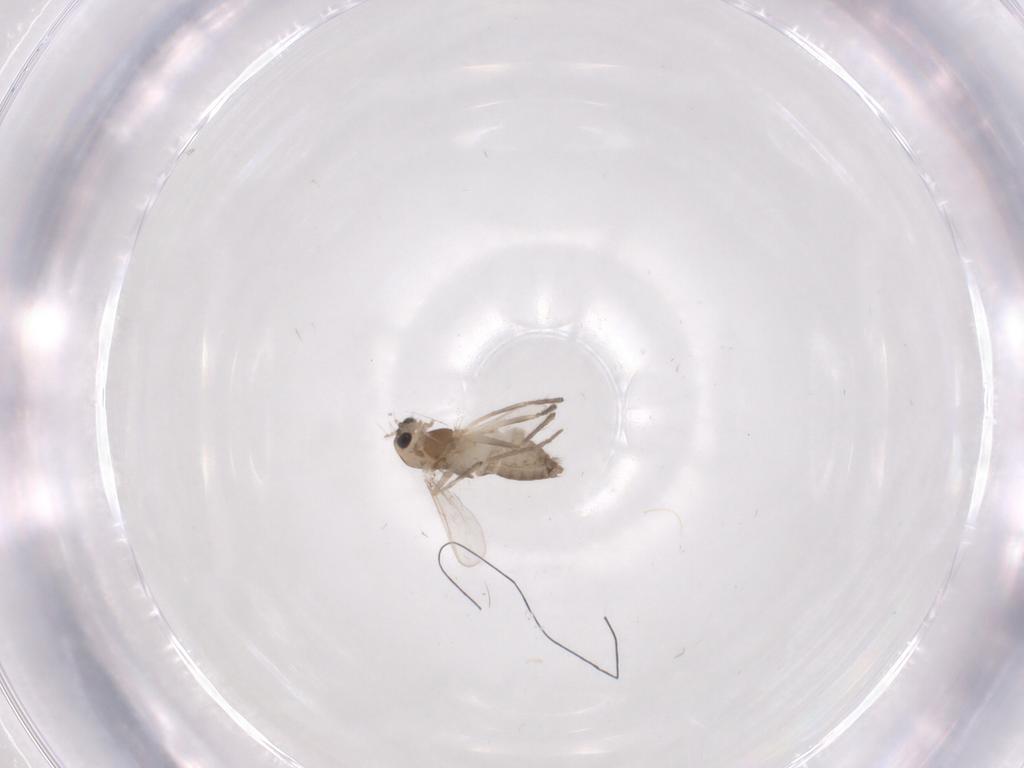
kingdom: Animalia
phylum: Arthropoda
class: Insecta
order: Diptera
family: Chironomidae
